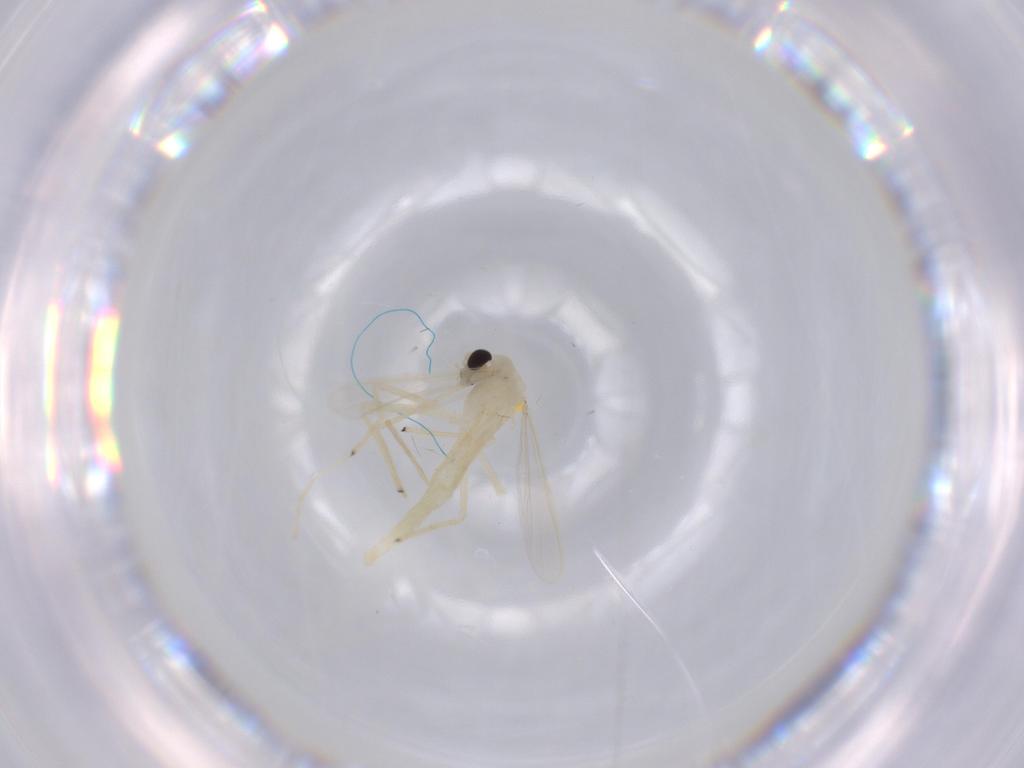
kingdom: Animalia
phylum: Arthropoda
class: Insecta
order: Diptera
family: Chironomidae
